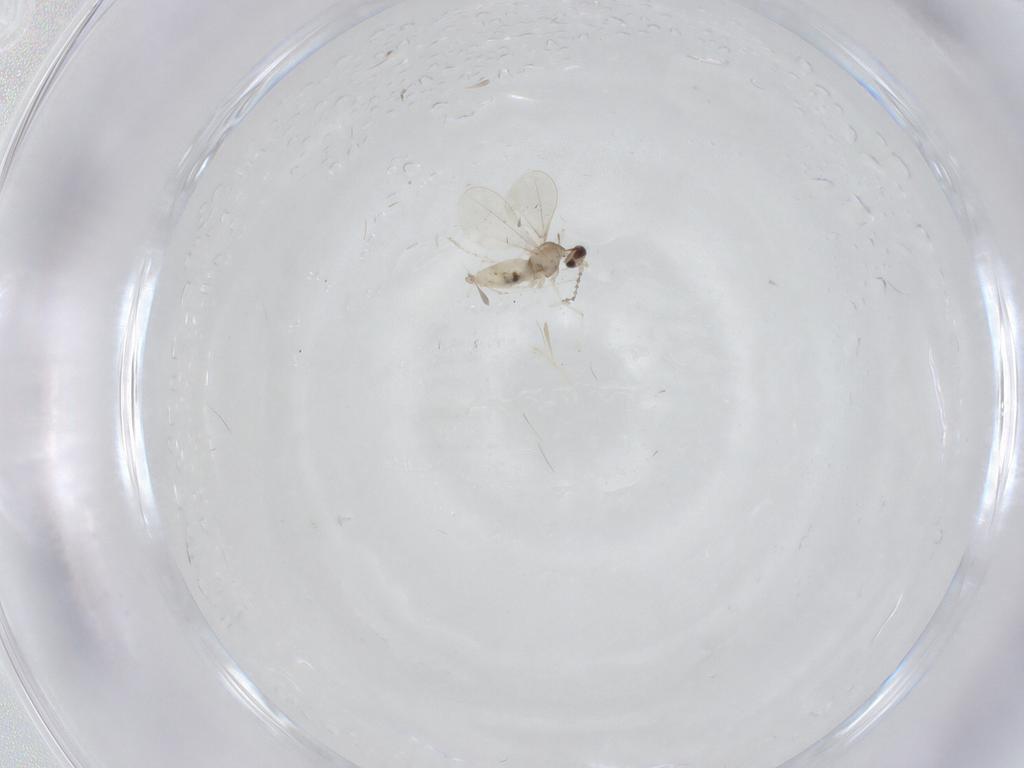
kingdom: Animalia
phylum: Arthropoda
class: Insecta
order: Diptera
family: Cecidomyiidae
